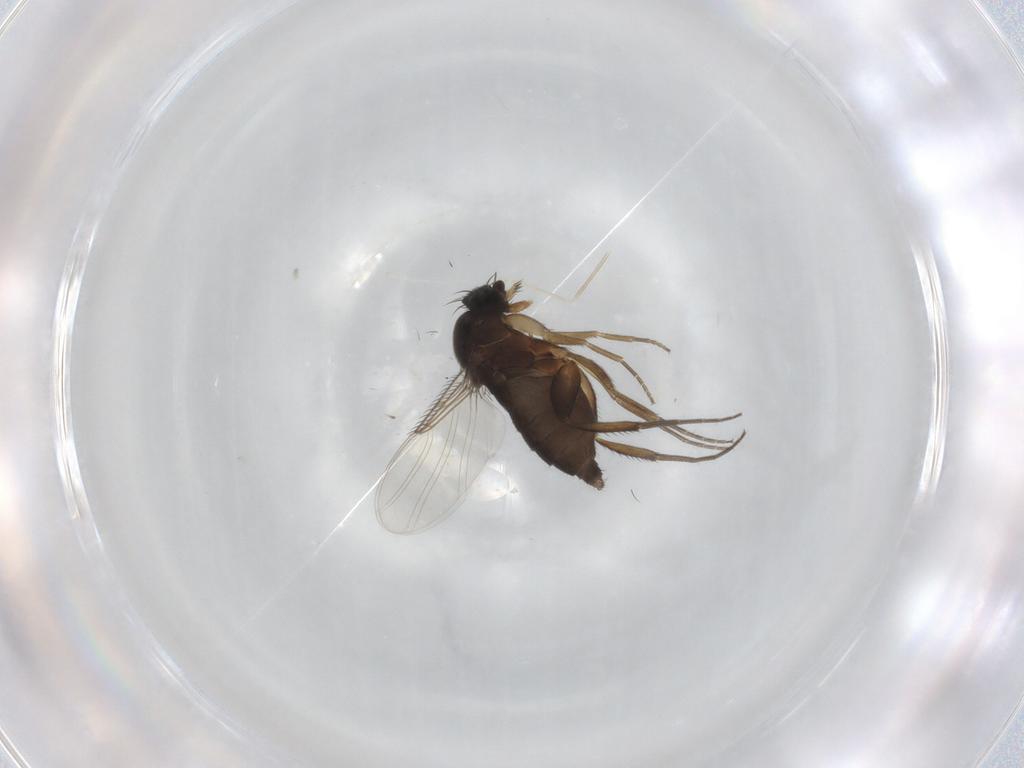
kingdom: Animalia
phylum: Arthropoda
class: Insecta
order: Diptera
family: Phoridae
